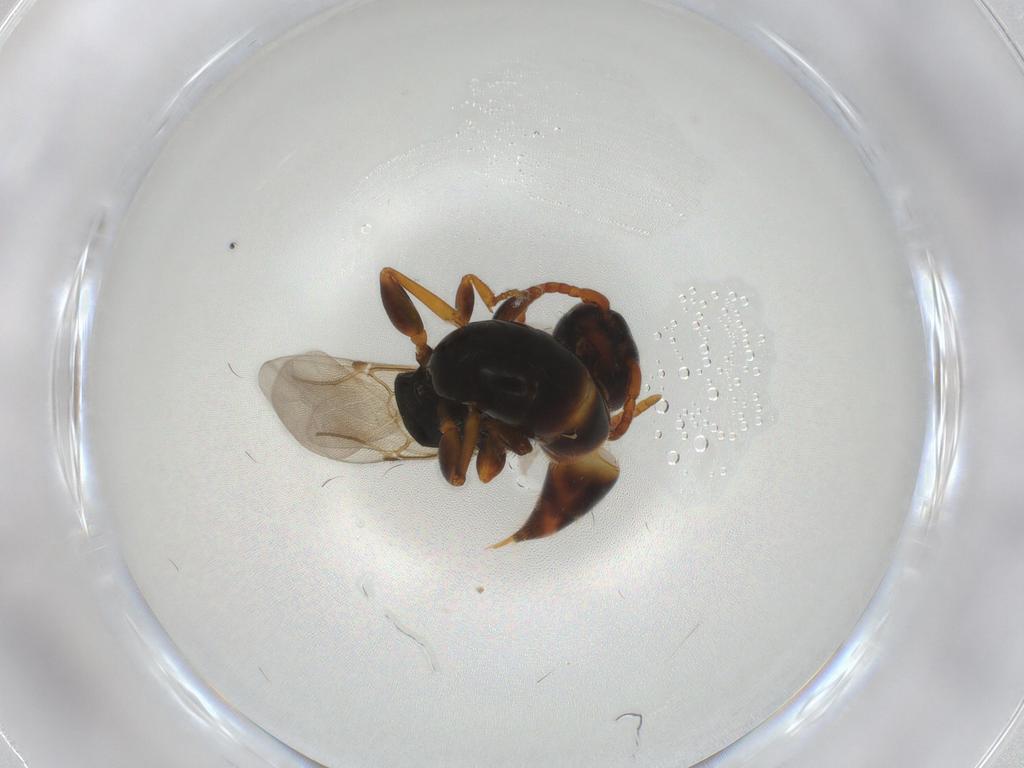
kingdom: Animalia
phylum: Arthropoda
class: Insecta
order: Hymenoptera
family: Bethylidae
